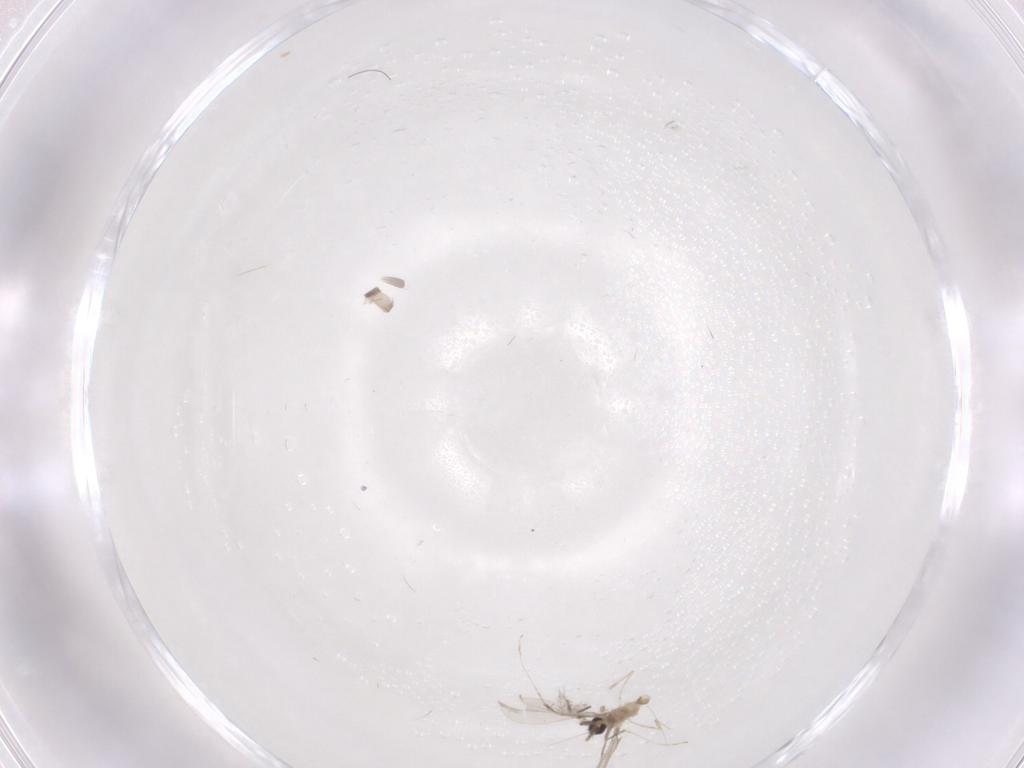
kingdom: Animalia
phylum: Arthropoda
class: Insecta
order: Diptera
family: Cecidomyiidae
